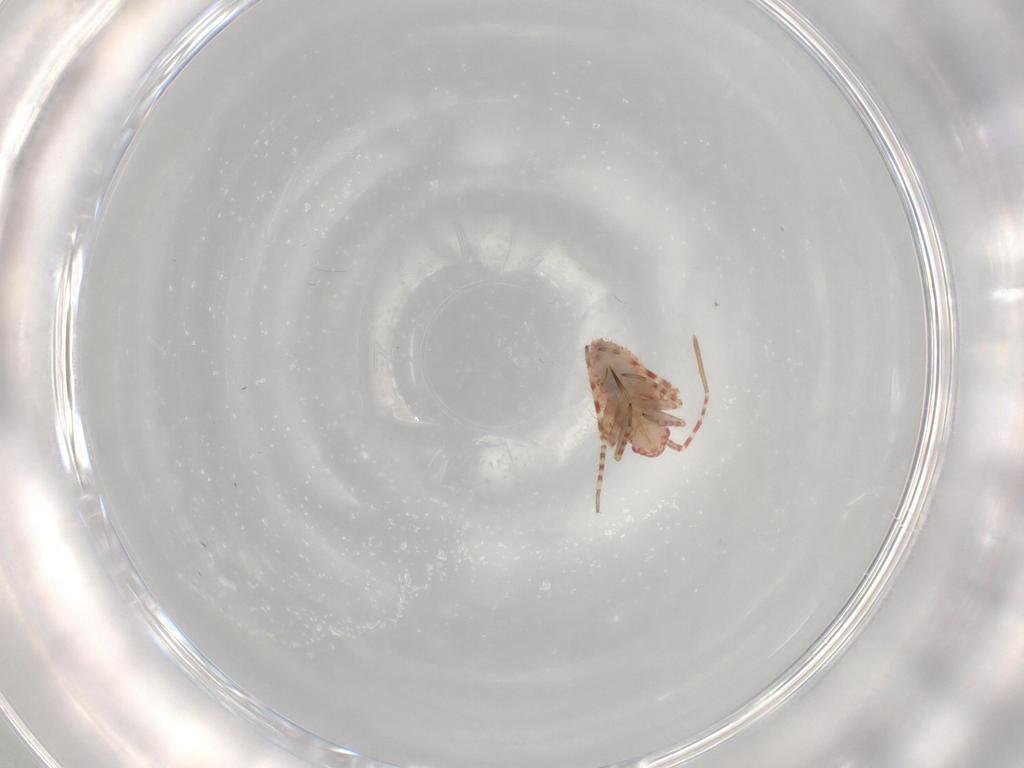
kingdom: Animalia
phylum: Arthropoda
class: Insecta
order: Hemiptera
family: Miridae
